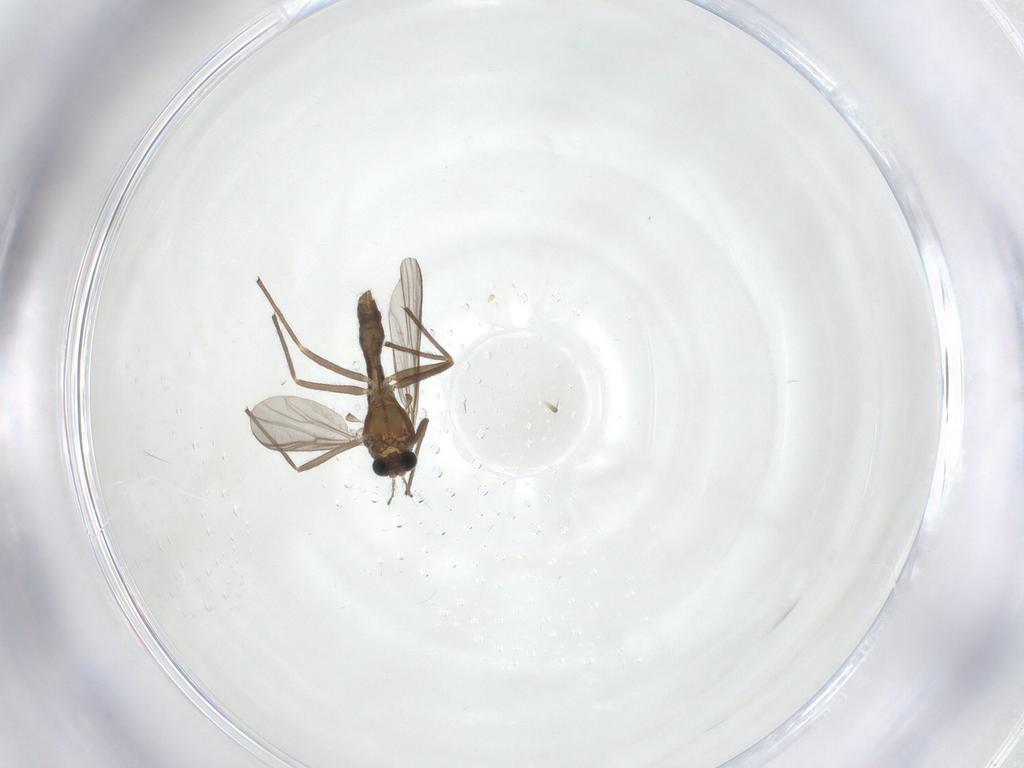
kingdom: Animalia
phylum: Arthropoda
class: Insecta
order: Diptera
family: Chironomidae
